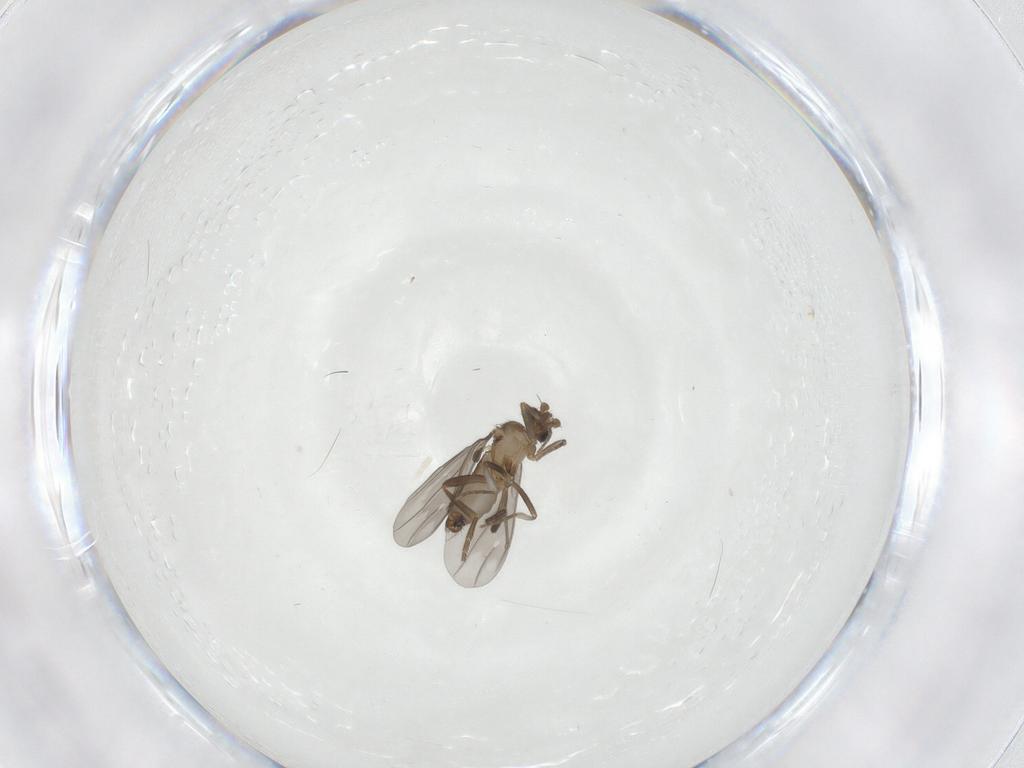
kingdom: Animalia
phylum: Arthropoda
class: Insecta
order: Diptera
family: Phoridae
